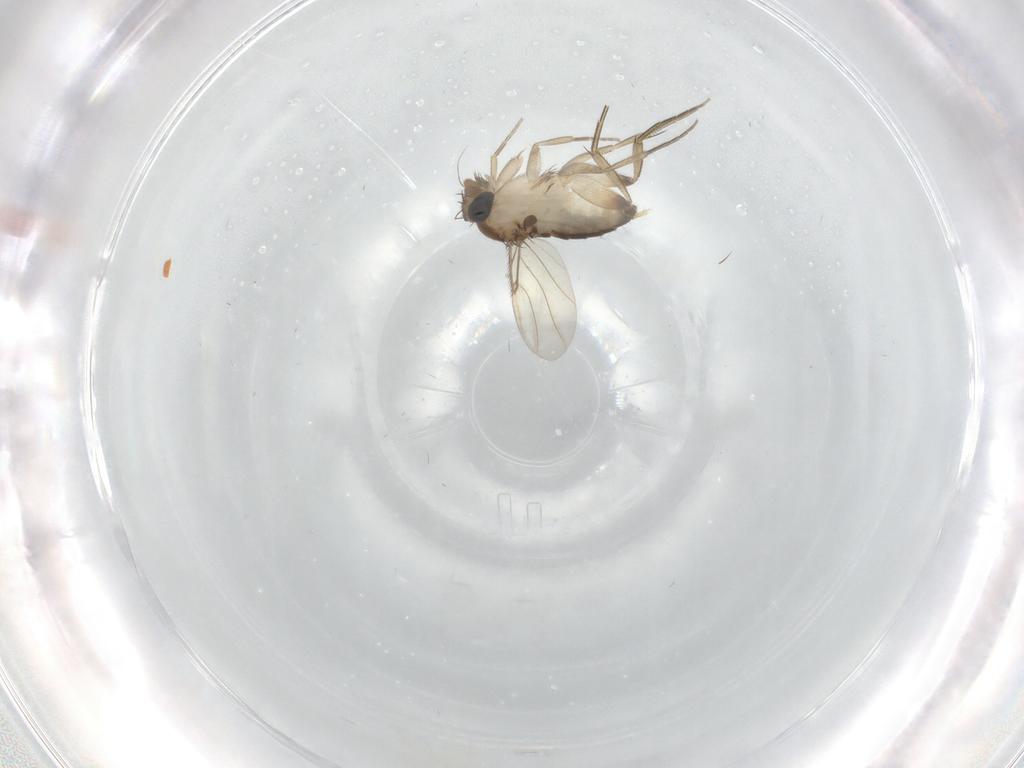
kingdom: Animalia
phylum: Arthropoda
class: Insecta
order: Diptera
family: Phoridae
